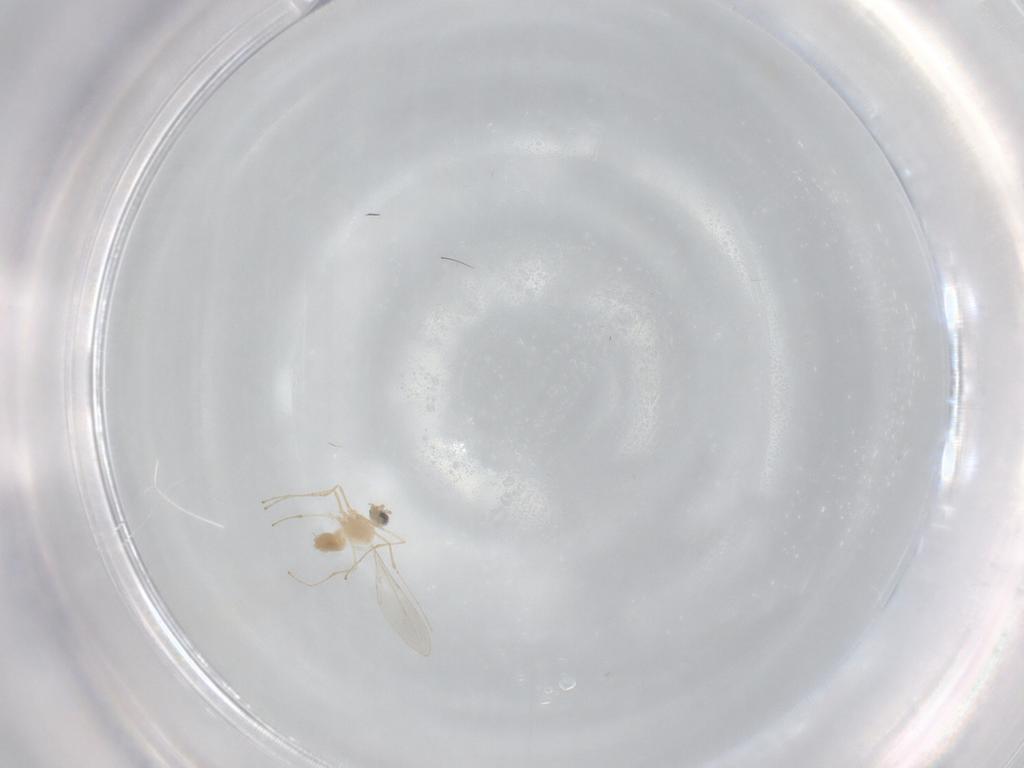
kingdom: Animalia
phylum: Arthropoda
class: Insecta
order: Diptera
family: Cecidomyiidae
